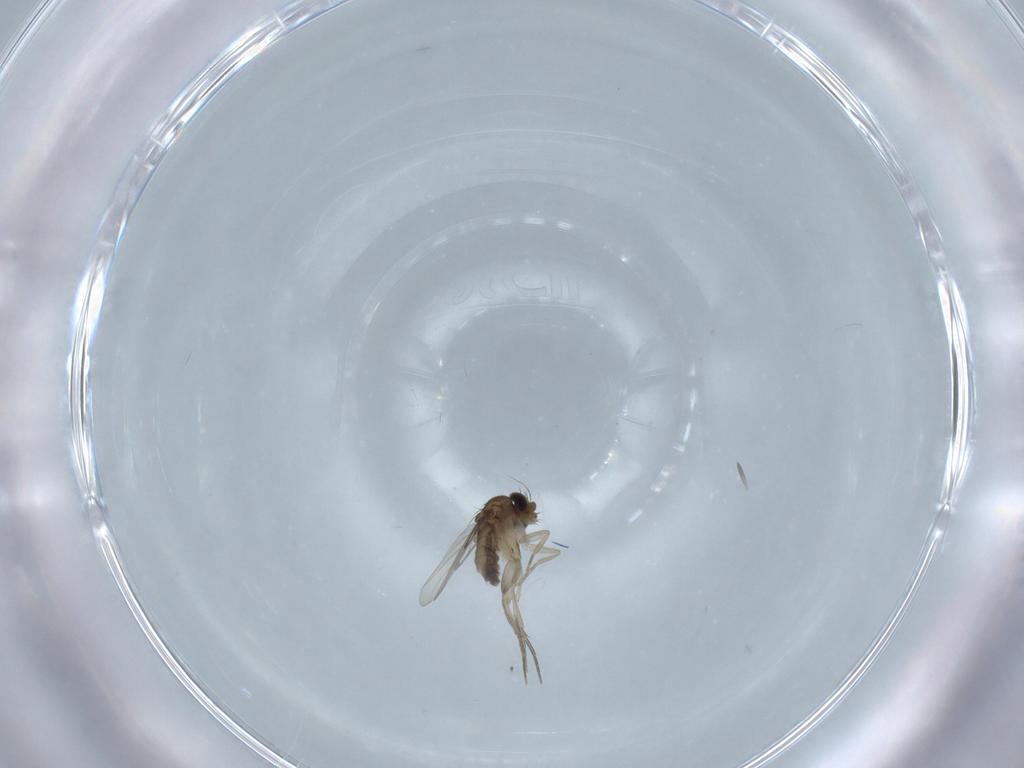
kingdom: Animalia
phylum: Arthropoda
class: Insecta
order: Diptera
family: Phoridae
